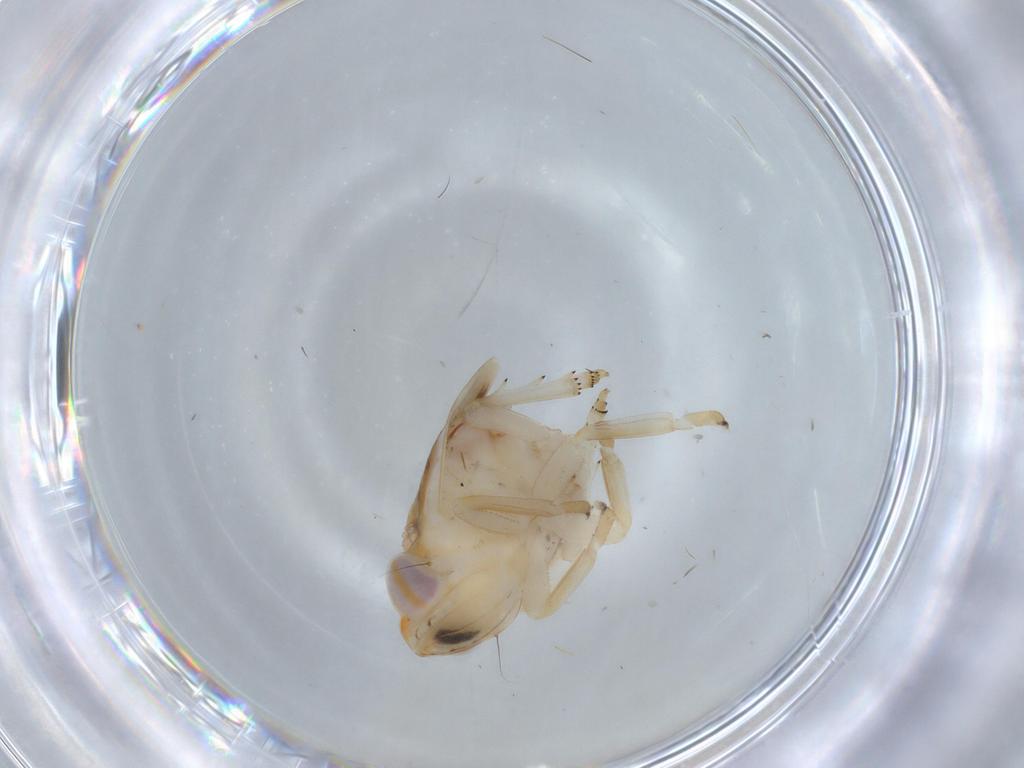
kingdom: Animalia
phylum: Arthropoda
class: Insecta
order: Hemiptera
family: Nogodinidae
